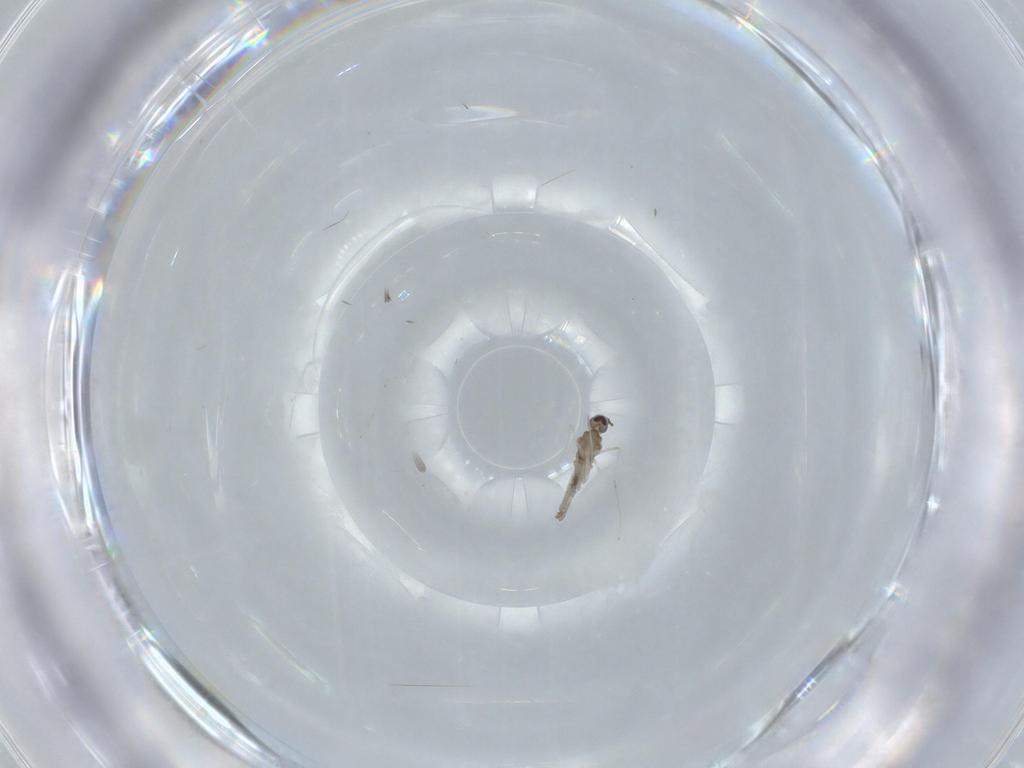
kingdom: Animalia
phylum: Arthropoda
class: Insecta
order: Diptera
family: Cecidomyiidae
